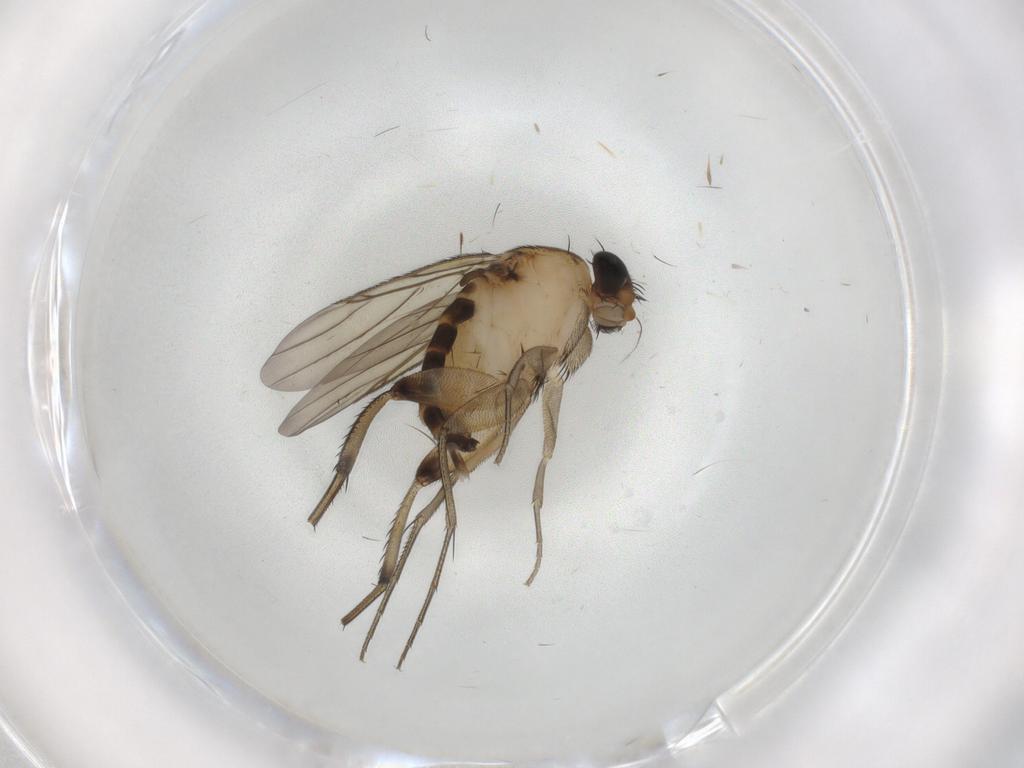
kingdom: Animalia
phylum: Arthropoda
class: Insecta
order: Diptera
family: Phoridae
